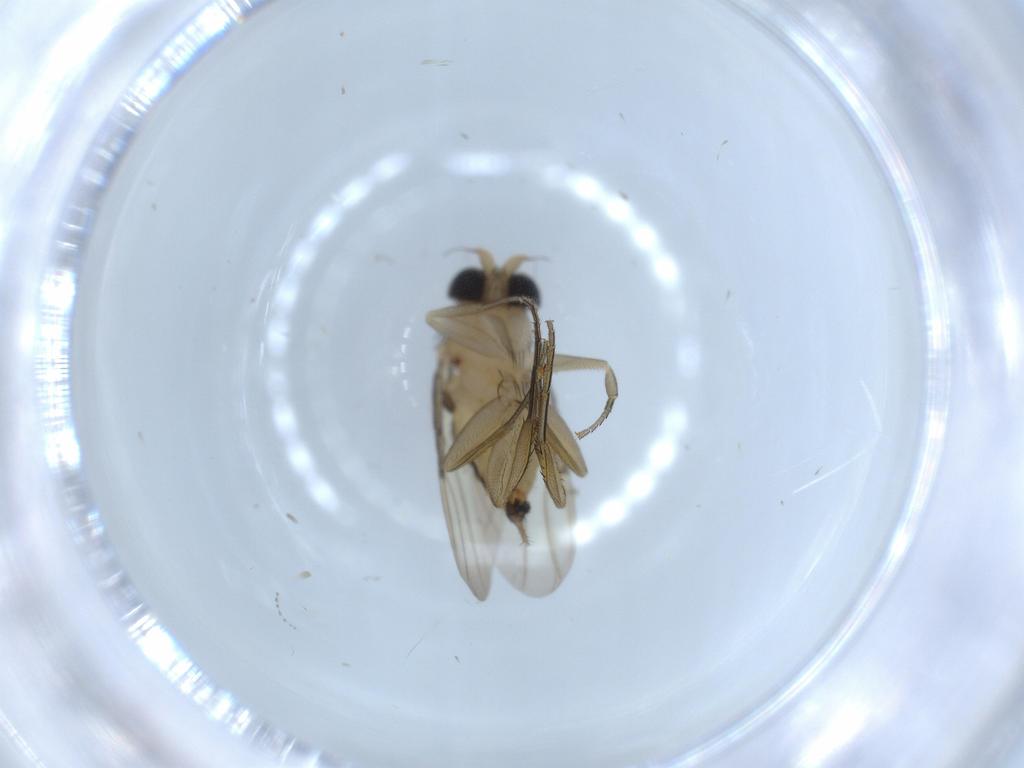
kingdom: Animalia
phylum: Arthropoda
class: Insecta
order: Diptera
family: Phoridae
